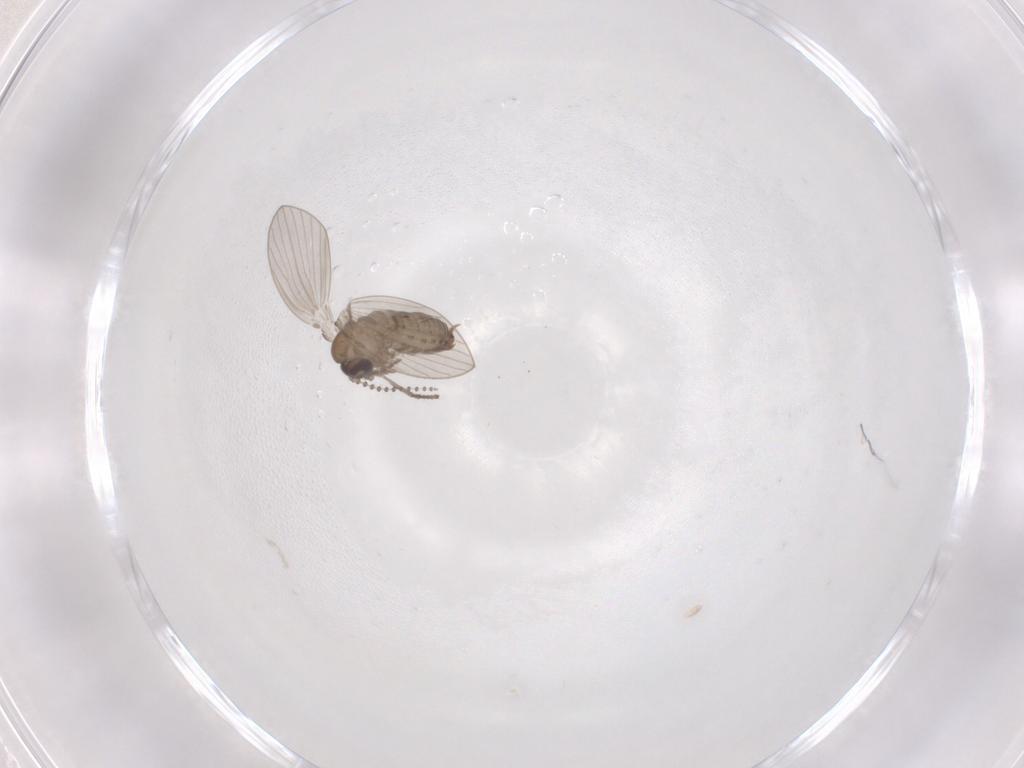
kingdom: Animalia
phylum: Arthropoda
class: Insecta
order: Diptera
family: Psychodidae
